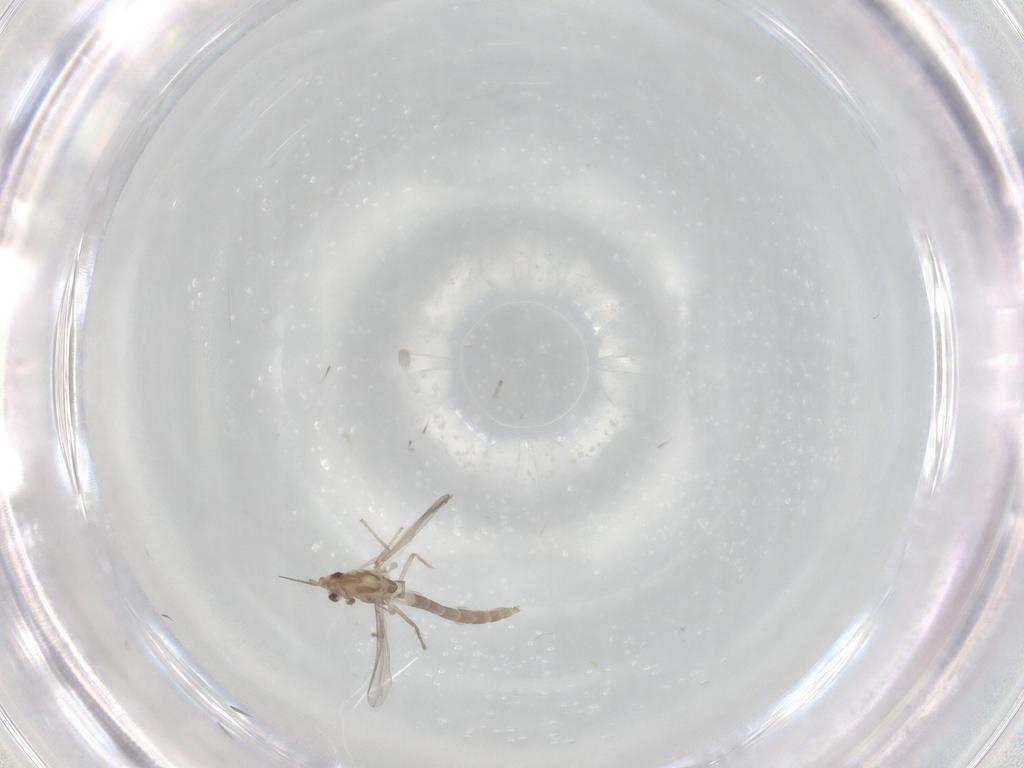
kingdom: Animalia
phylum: Arthropoda
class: Insecta
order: Diptera
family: Chironomidae
